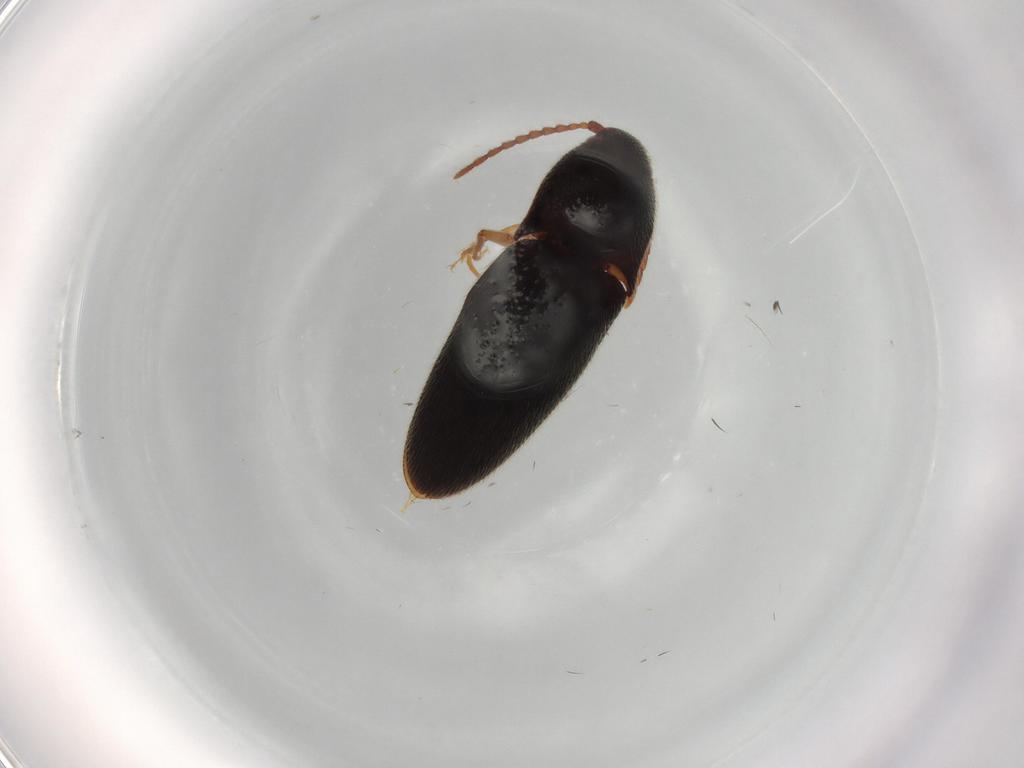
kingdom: Animalia
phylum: Arthropoda
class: Insecta
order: Coleoptera
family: Elateridae
